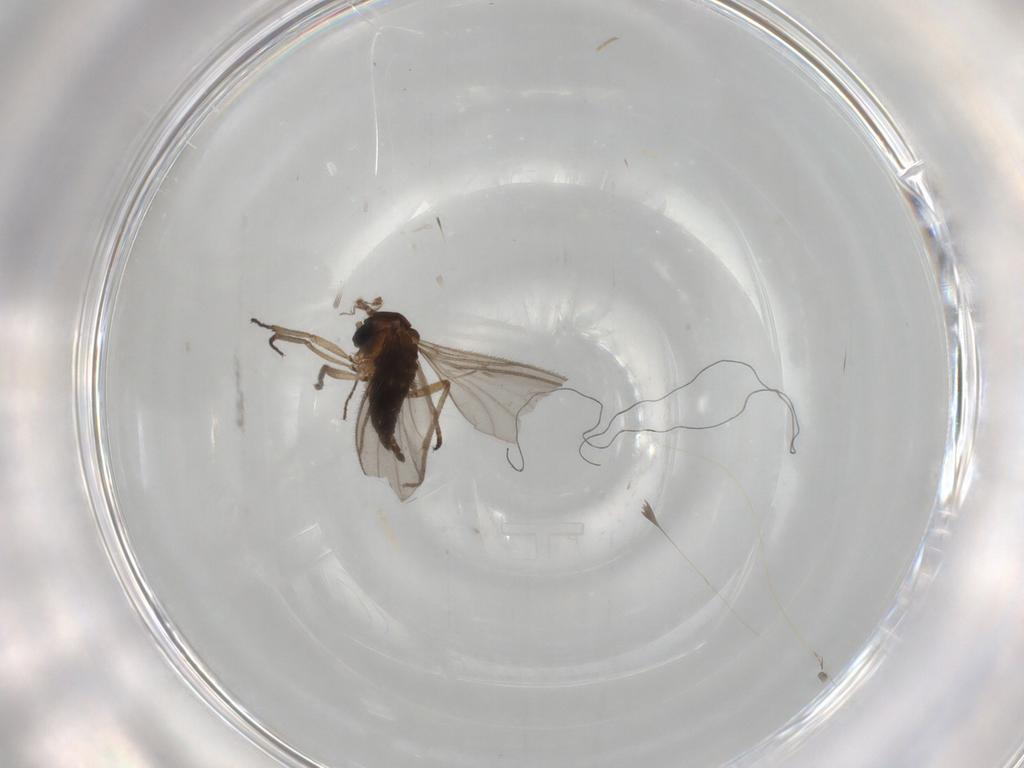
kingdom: Animalia
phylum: Arthropoda
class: Insecta
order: Diptera
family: Sciaridae
